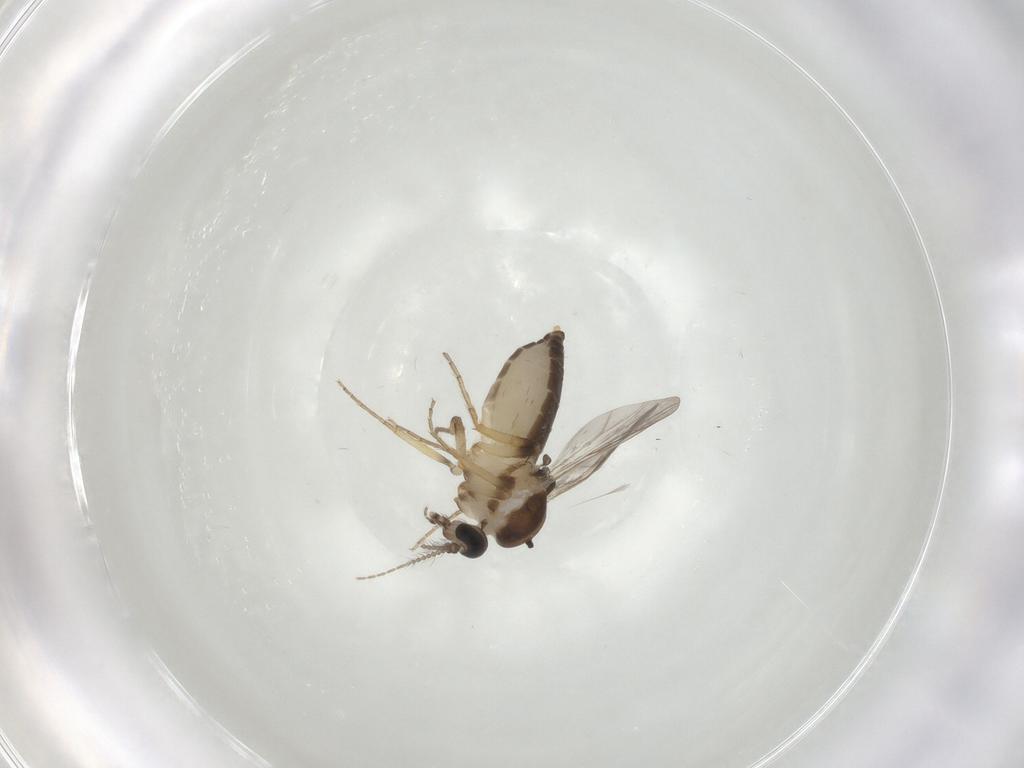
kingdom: Animalia
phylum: Arthropoda
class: Insecta
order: Diptera
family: Ceratopogonidae
